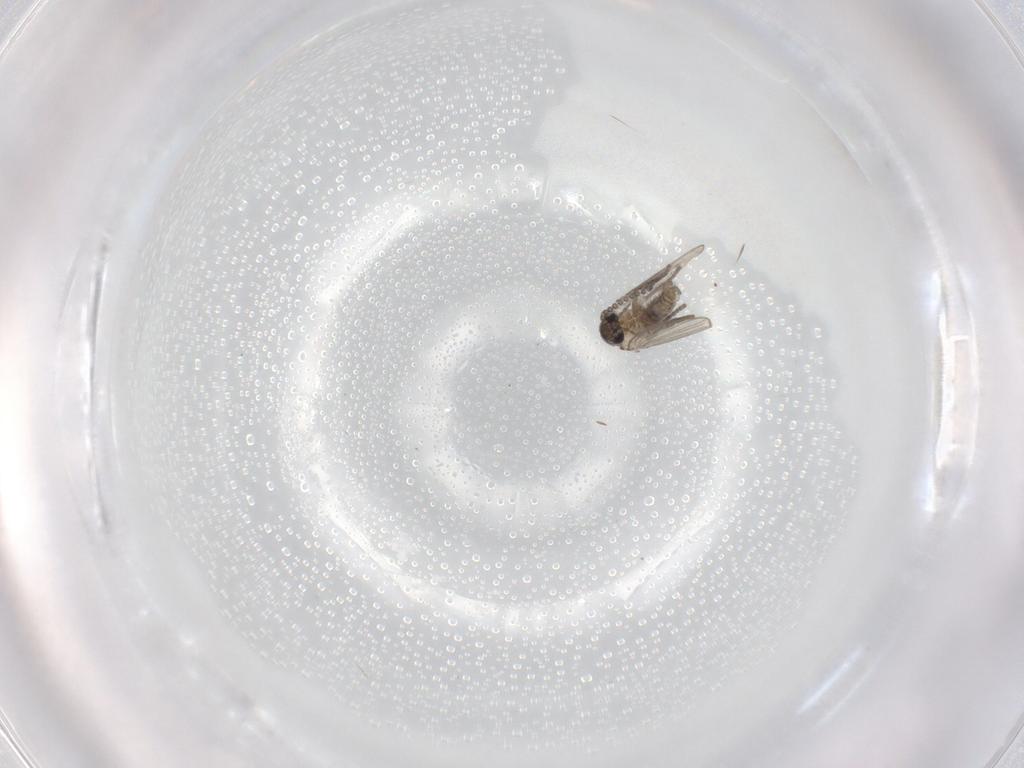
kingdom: Animalia
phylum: Arthropoda
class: Insecta
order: Diptera
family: Psychodidae
